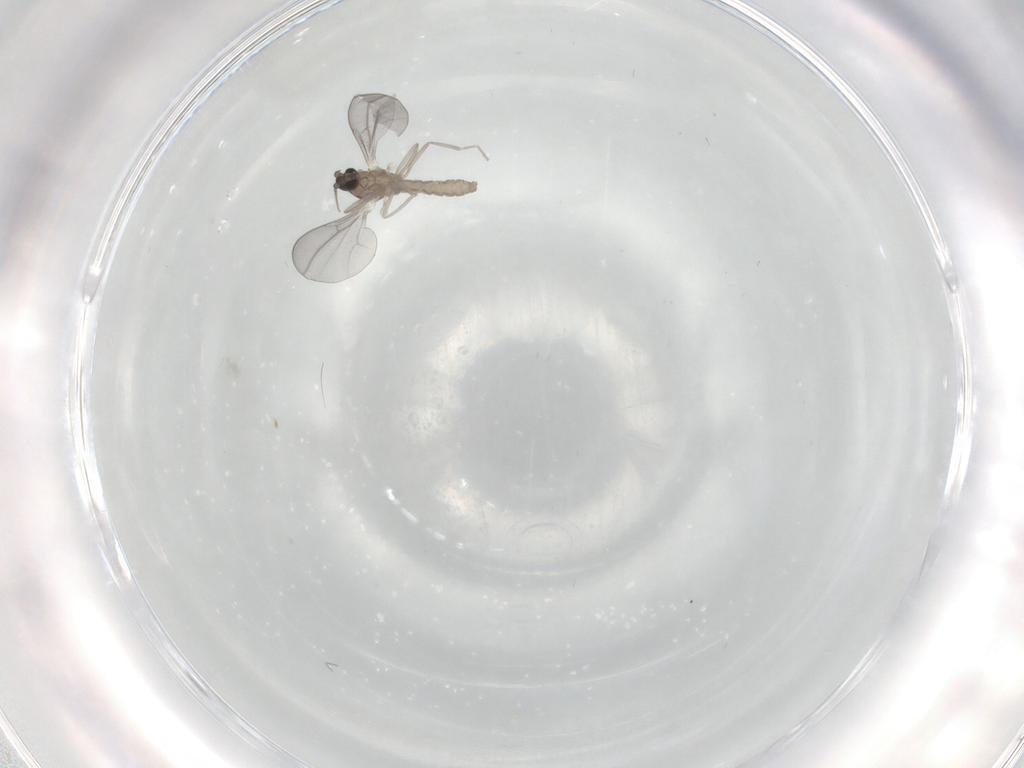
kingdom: Animalia
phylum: Arthropoda
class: Insecta
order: Diptera
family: Cecidomyiidae
